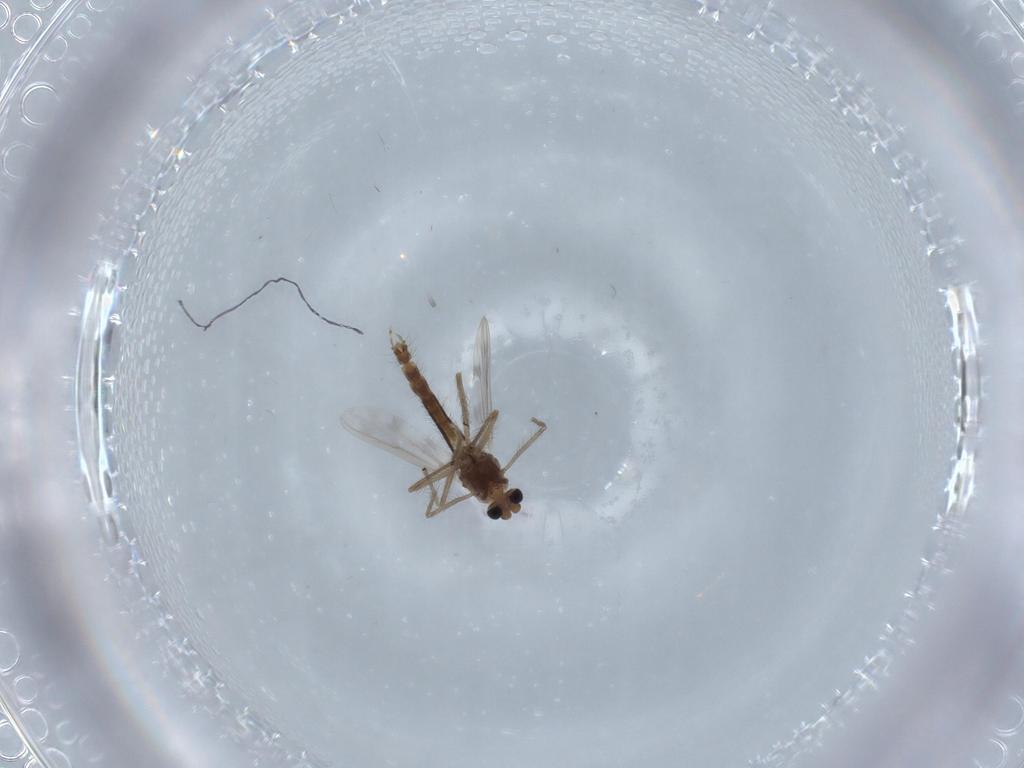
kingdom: Animalia
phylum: Arthropoda
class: Insecta
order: Diptera
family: Chironomidae
